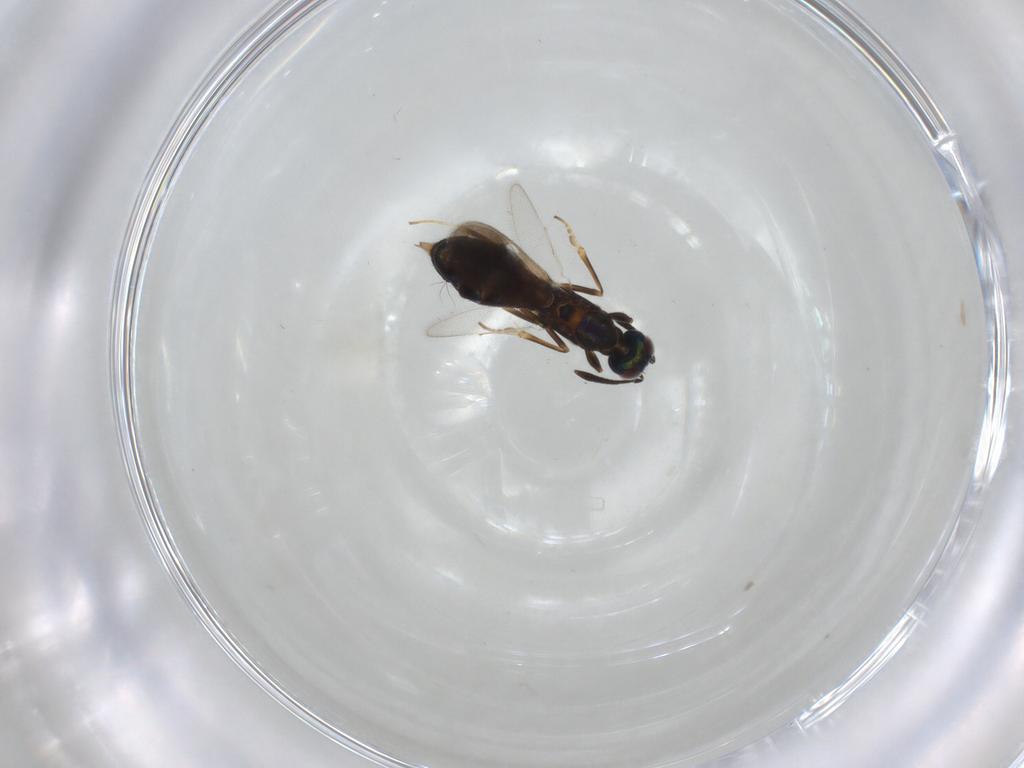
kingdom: Animalia
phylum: Arthropoda
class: Insecta
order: Hymenoptera
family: Eupelmidae
